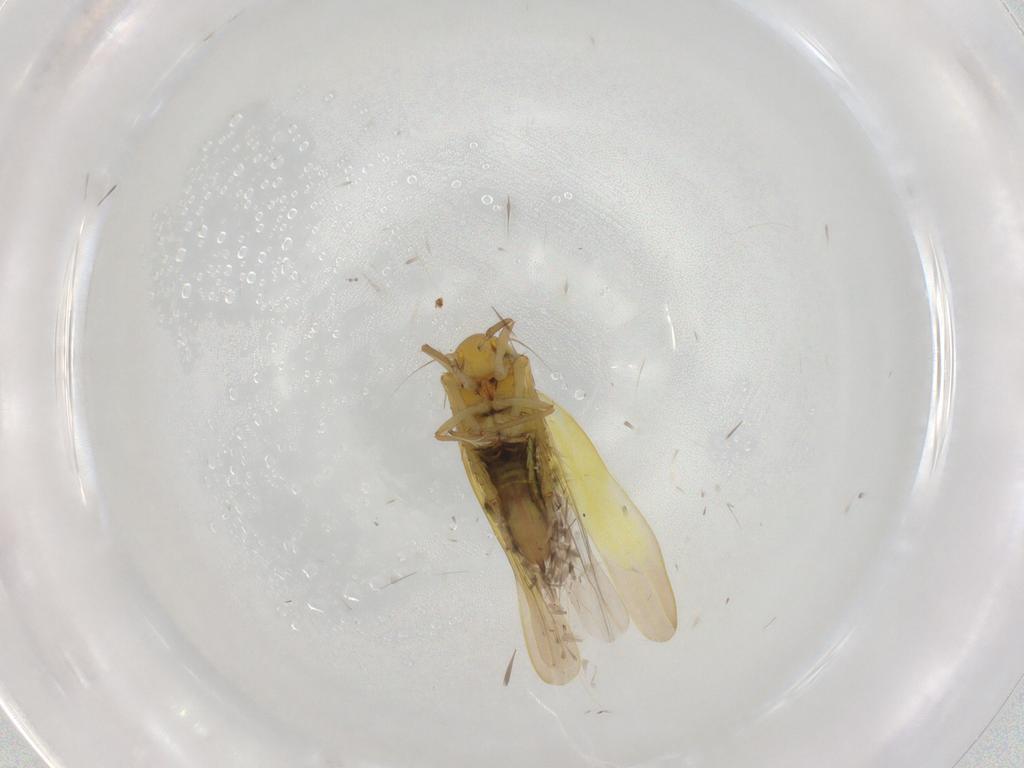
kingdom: Animalia
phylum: Arthropoda
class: Insecta
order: Hemiptera
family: Cicadellidae
